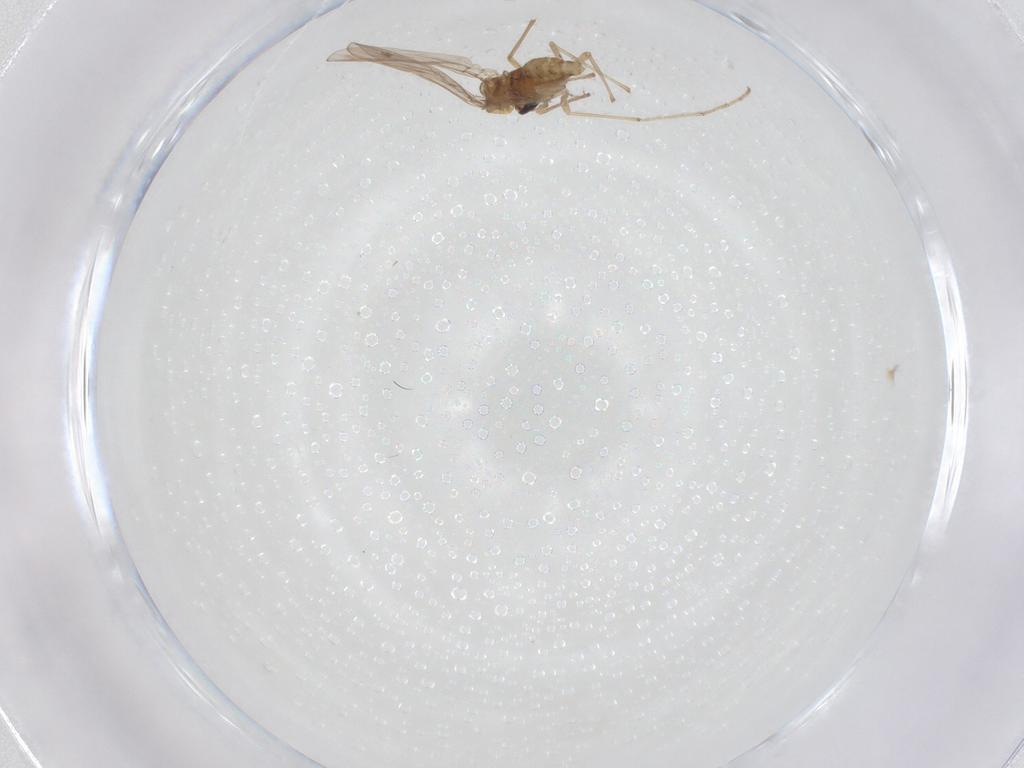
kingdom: Animalia
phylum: Arthropoda
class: Insecta
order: Diptera
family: Chironomidae
